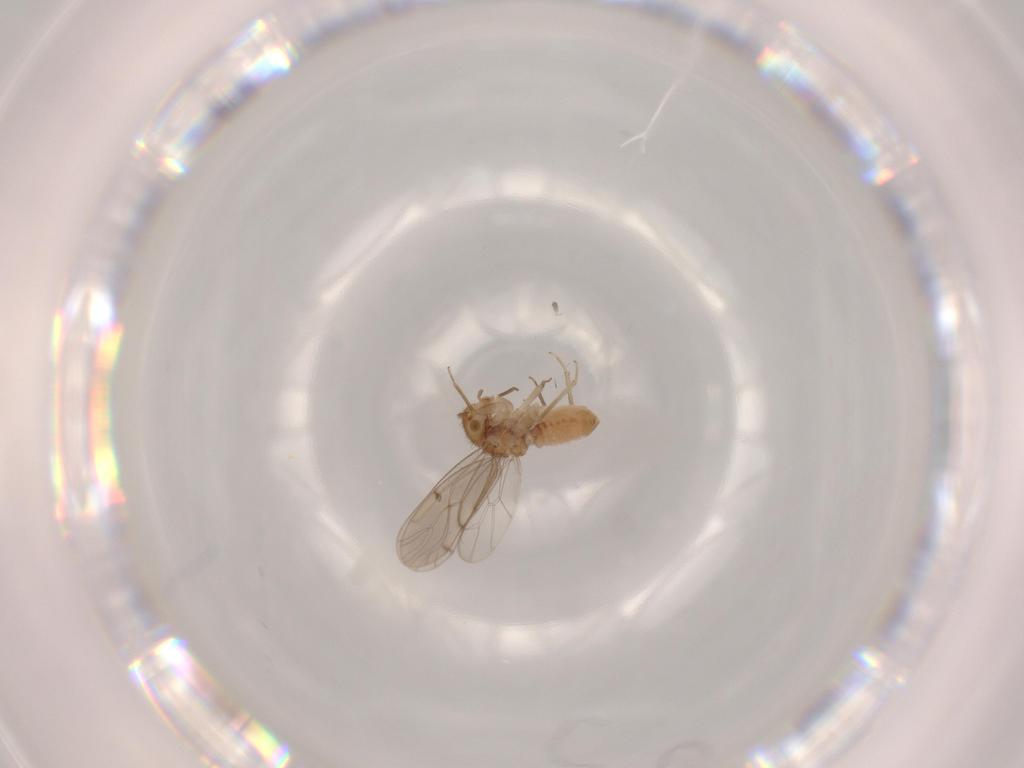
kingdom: Animalia
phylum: Arthropoda
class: Insecta
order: Psocodea
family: Ectopsocidae
